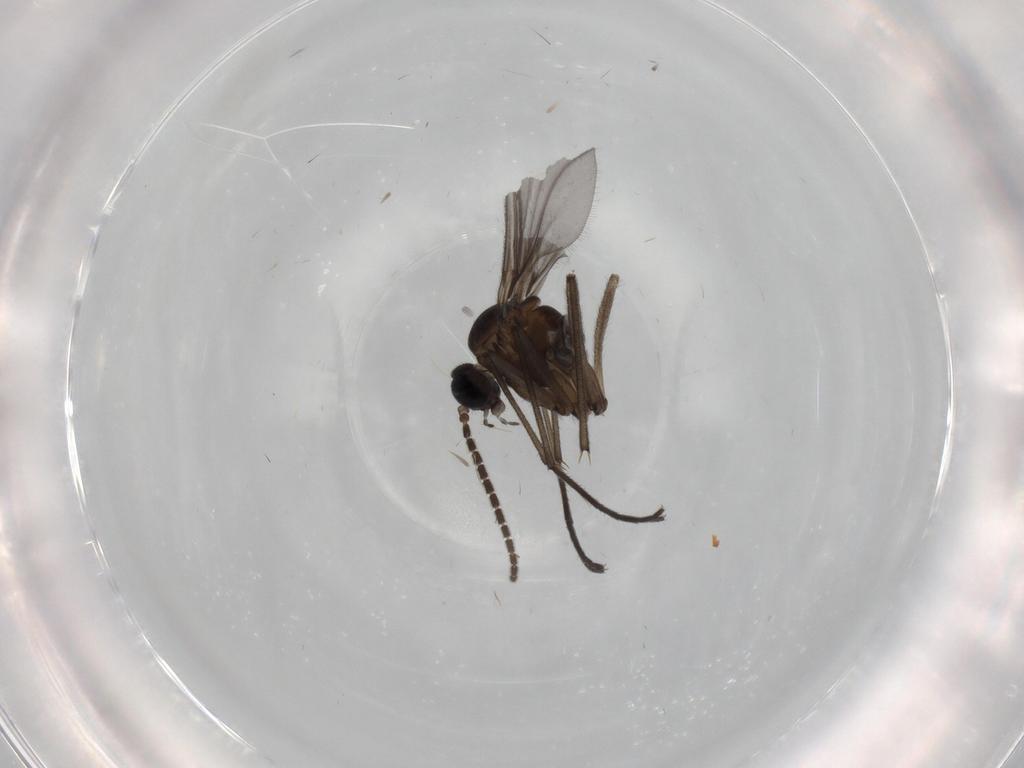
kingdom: Animalia
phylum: Arthropoda
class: Insecta
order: Diptera
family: Sciaridae
